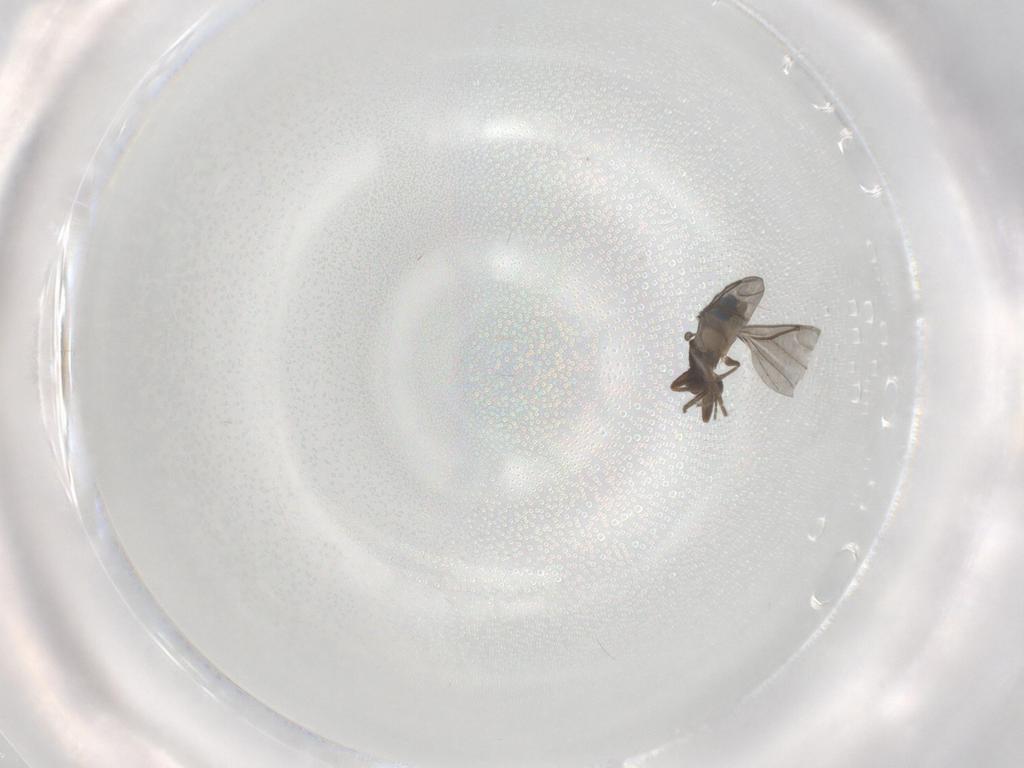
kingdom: Animalia
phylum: Arthropoda
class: Insecta
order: Diptera
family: Phoridae
